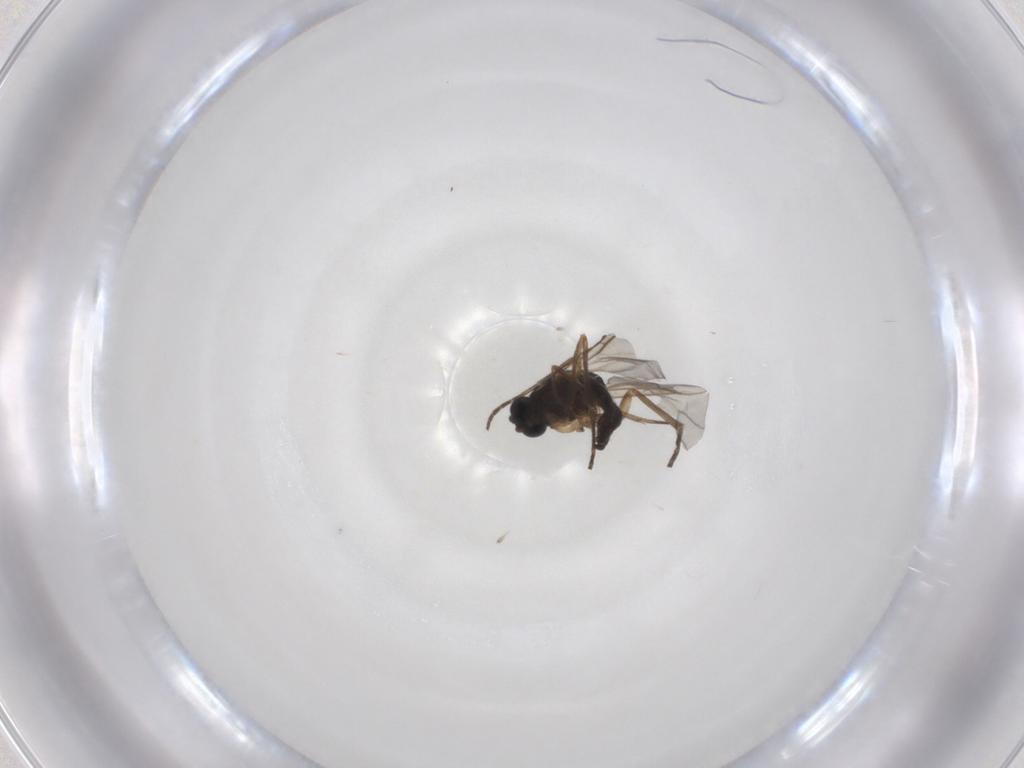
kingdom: Animalia
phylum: Arthropoda
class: Insecta
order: Diptera
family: Sciaridae
